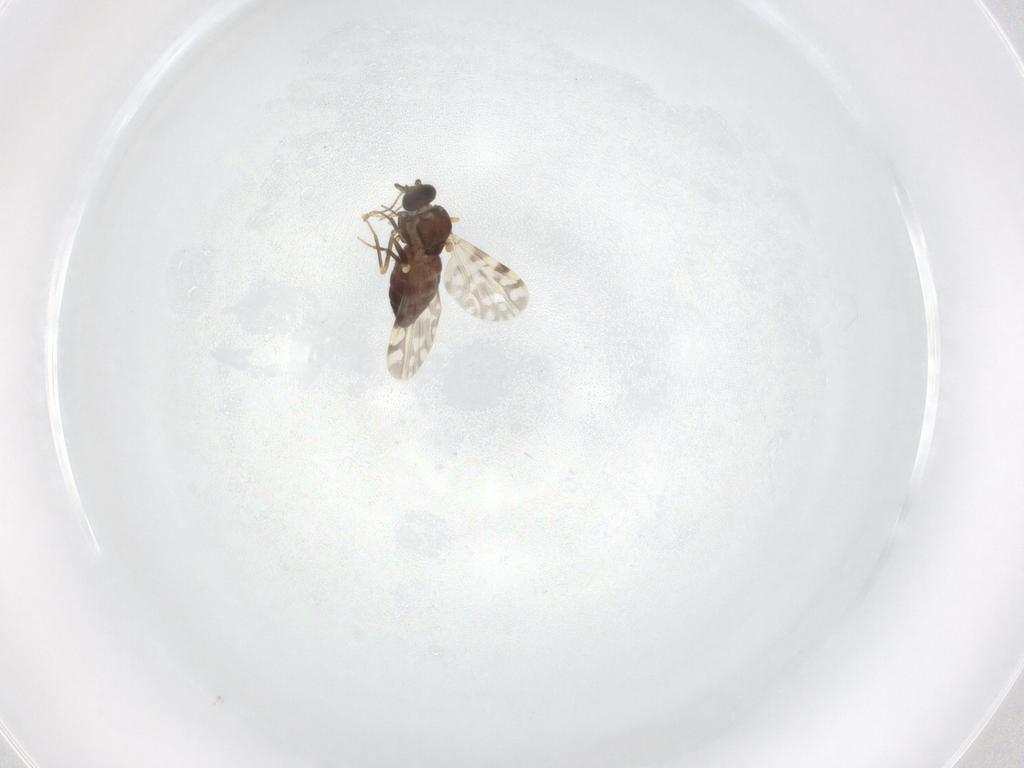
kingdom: Animalia
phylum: Arthropoda
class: Insecta
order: Diptera
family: Ceratopogonidae
